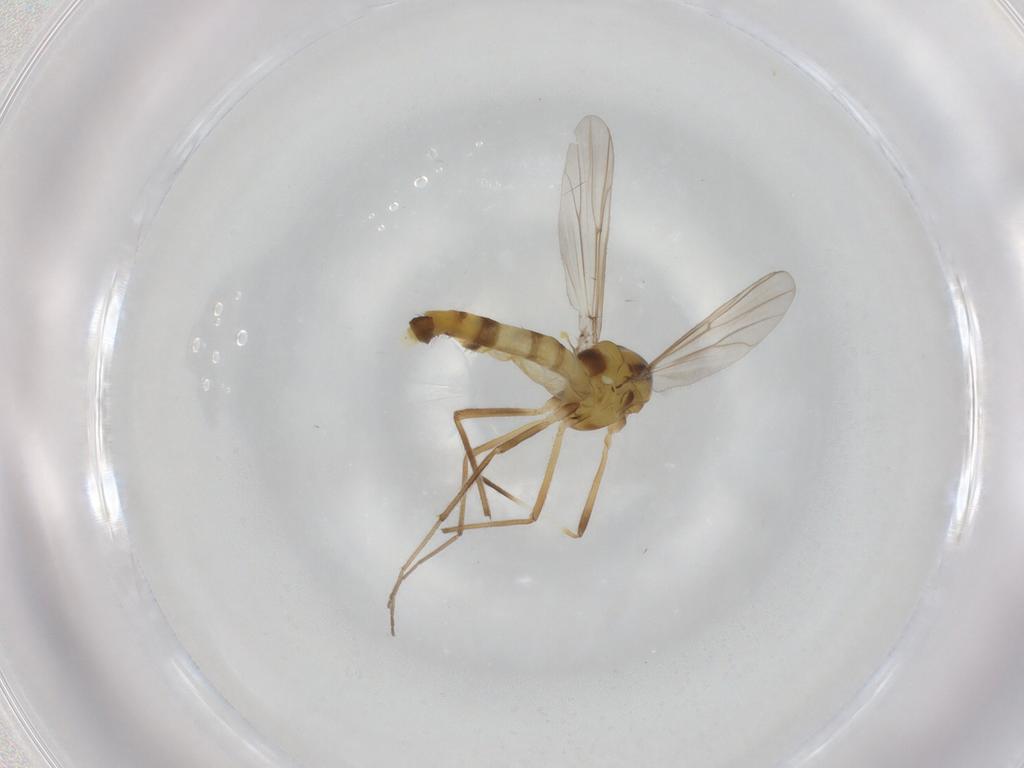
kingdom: Animalia
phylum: Arthropoda
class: Insecta
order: Diptera
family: Chironomidae
